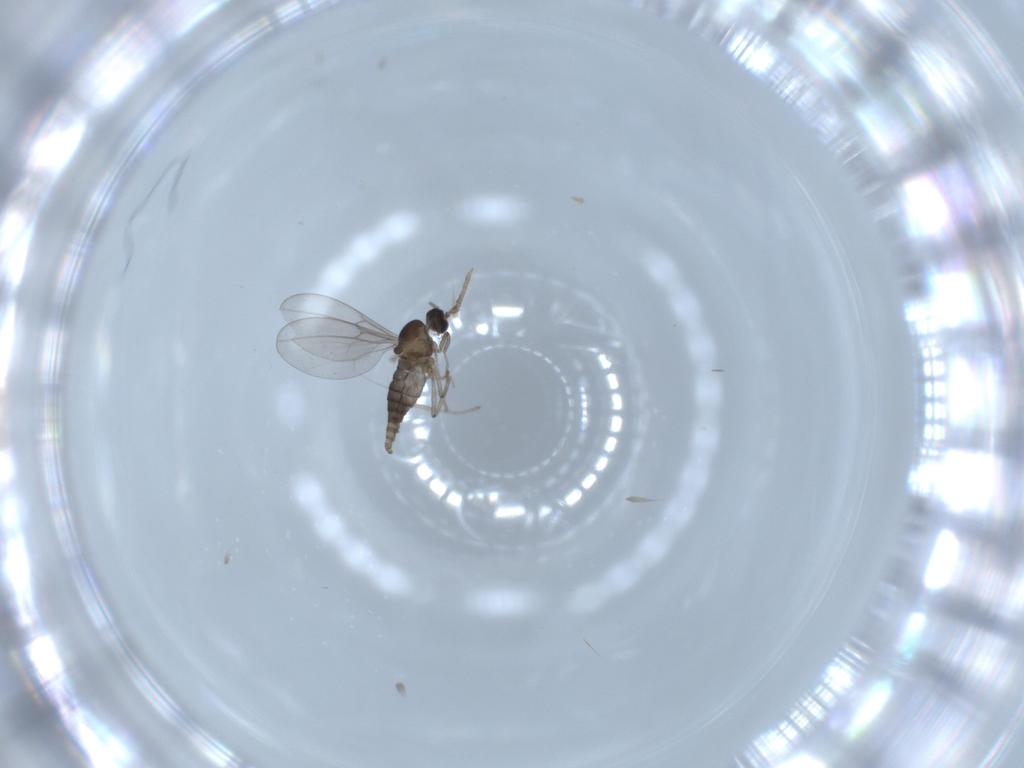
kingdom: Animalia
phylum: Arthropoda
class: Insecta
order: Diptera
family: Cecidomyiidae
